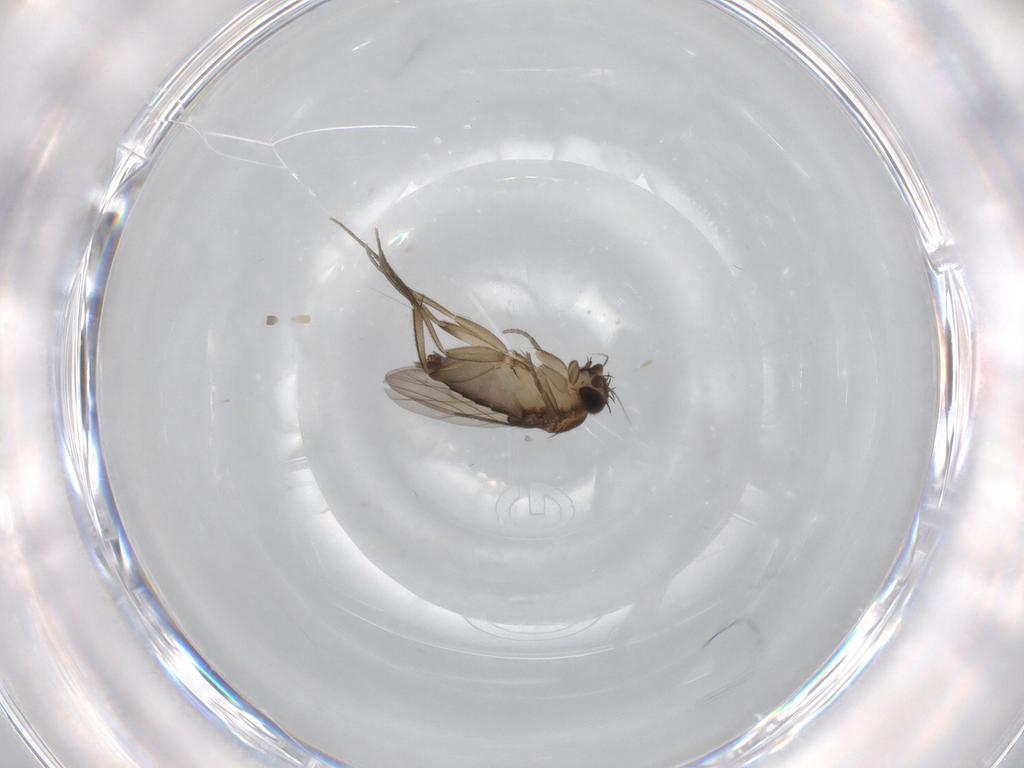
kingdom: Animalia
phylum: Arthropoda
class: Insecta
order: Diptera
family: Phoridae
